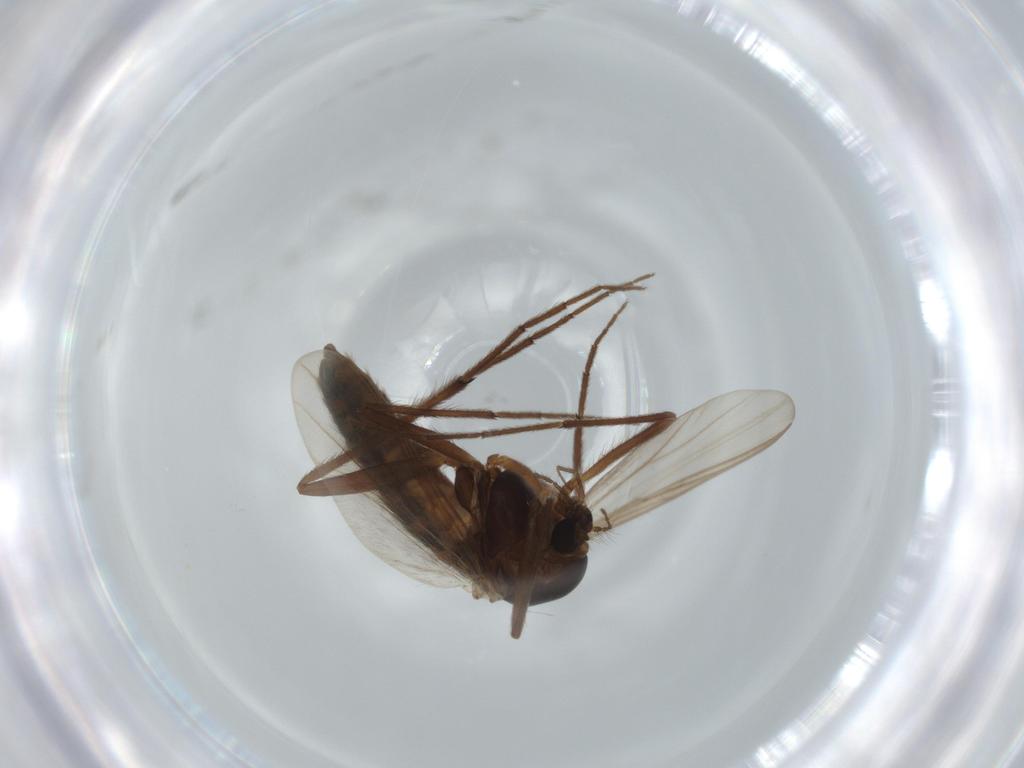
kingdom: Animalia
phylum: Arthropoda
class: Insecta
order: Diptera
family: Chironomidae
